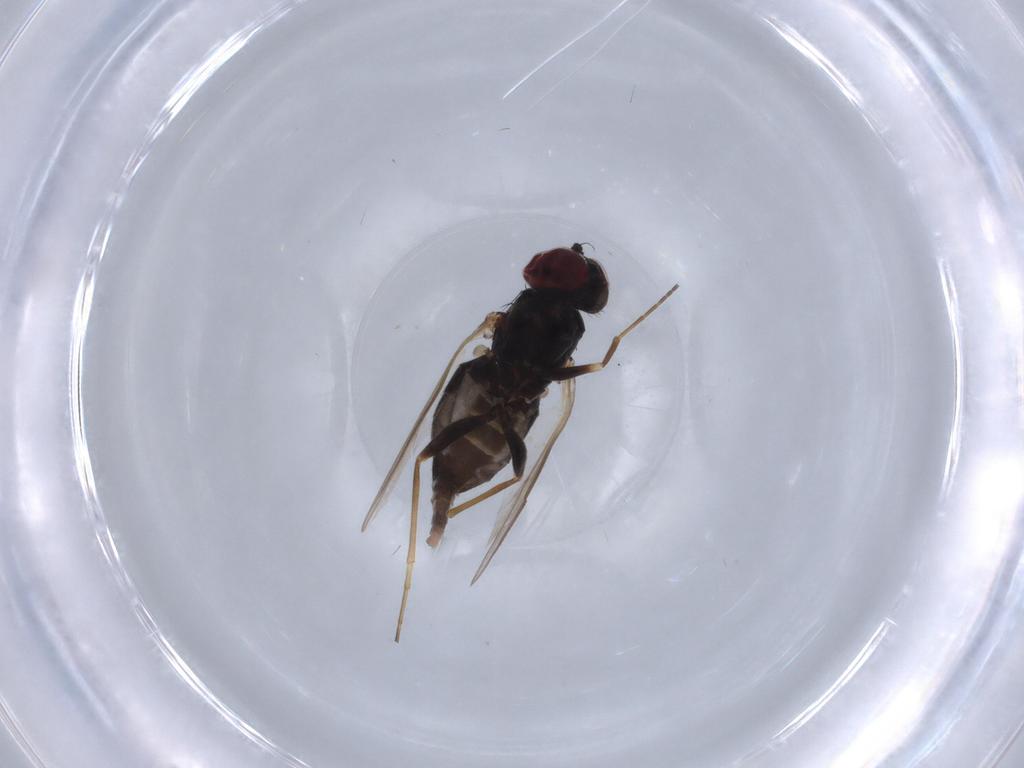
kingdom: Animalia
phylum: Arthropoda
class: Insecta
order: Diptera
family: Dolichopodidae
